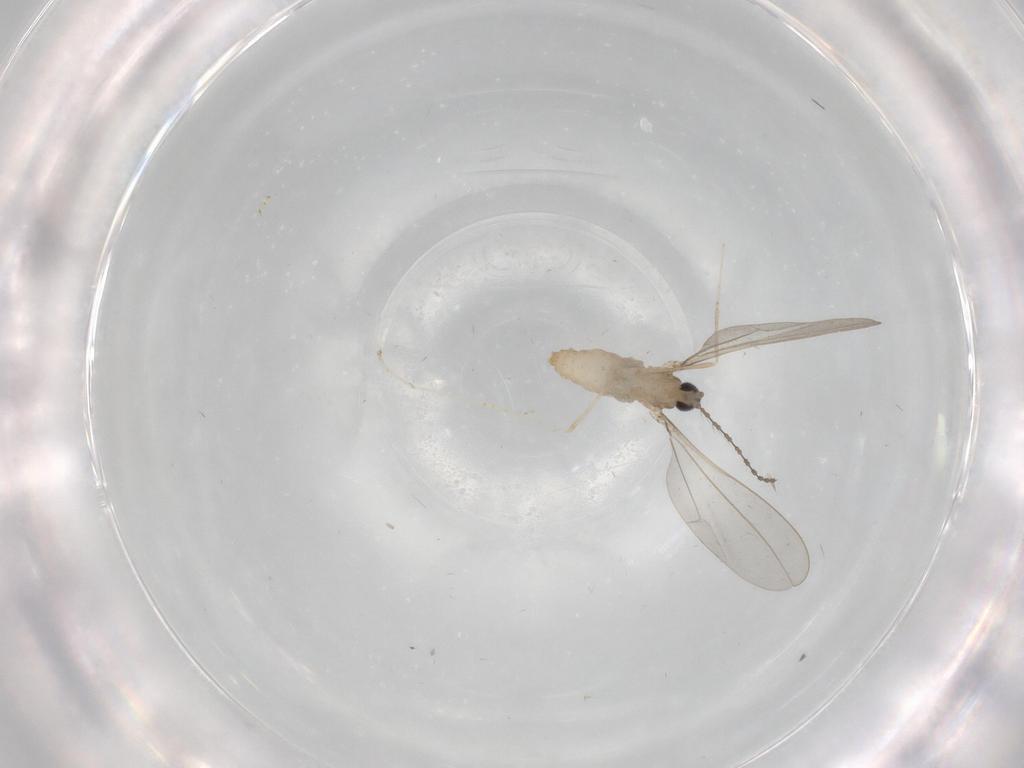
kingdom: Animalia
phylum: Arthropoda
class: Insecta
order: Diptera
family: Cecidomyiidae
